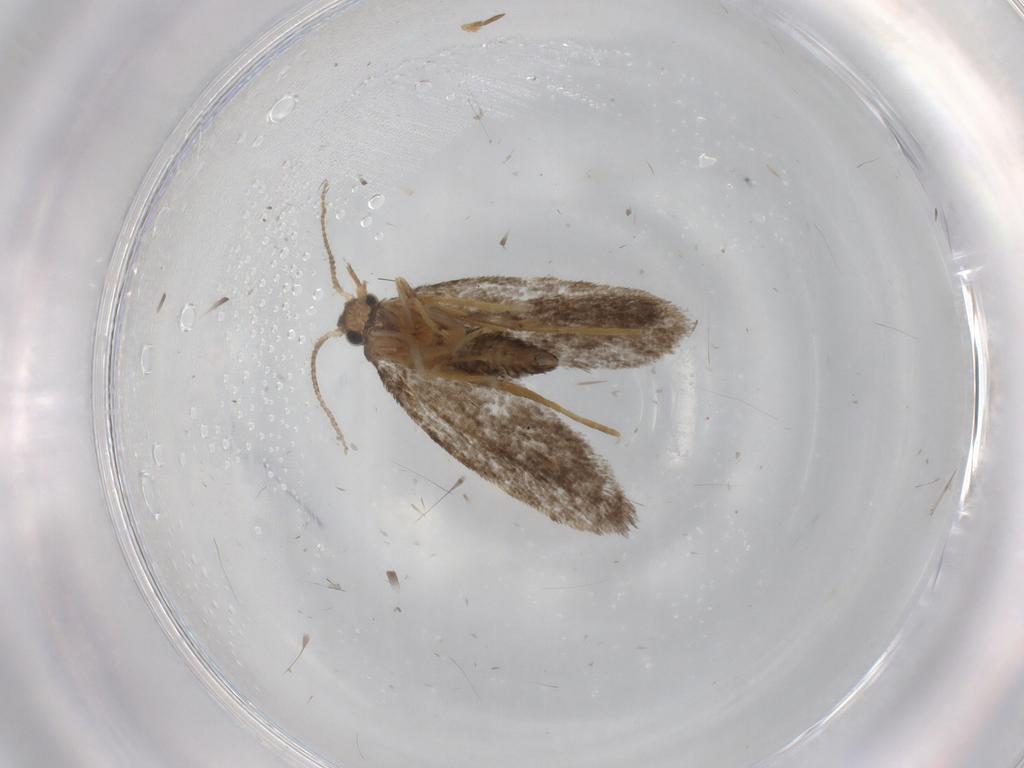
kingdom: Animalia
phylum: Arthropoda
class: Insecta
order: Lepidoptera
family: Psychidae
